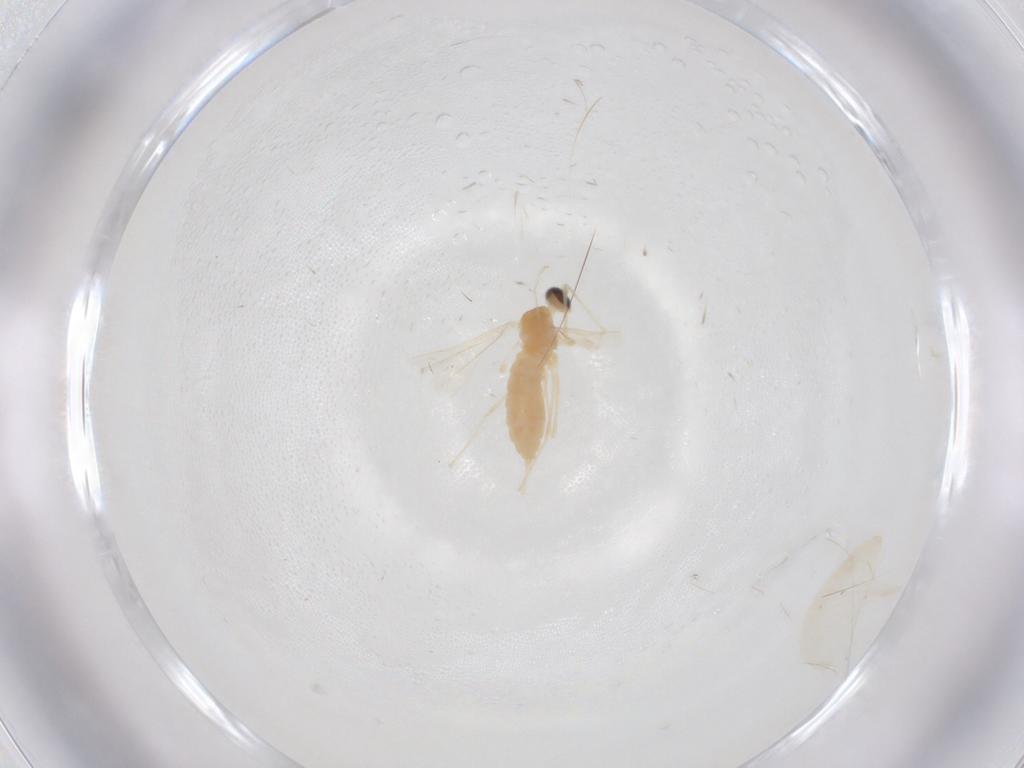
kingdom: Animalia
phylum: Arthropoda
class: Insecta
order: Diptera
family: Cecidomyiidae
